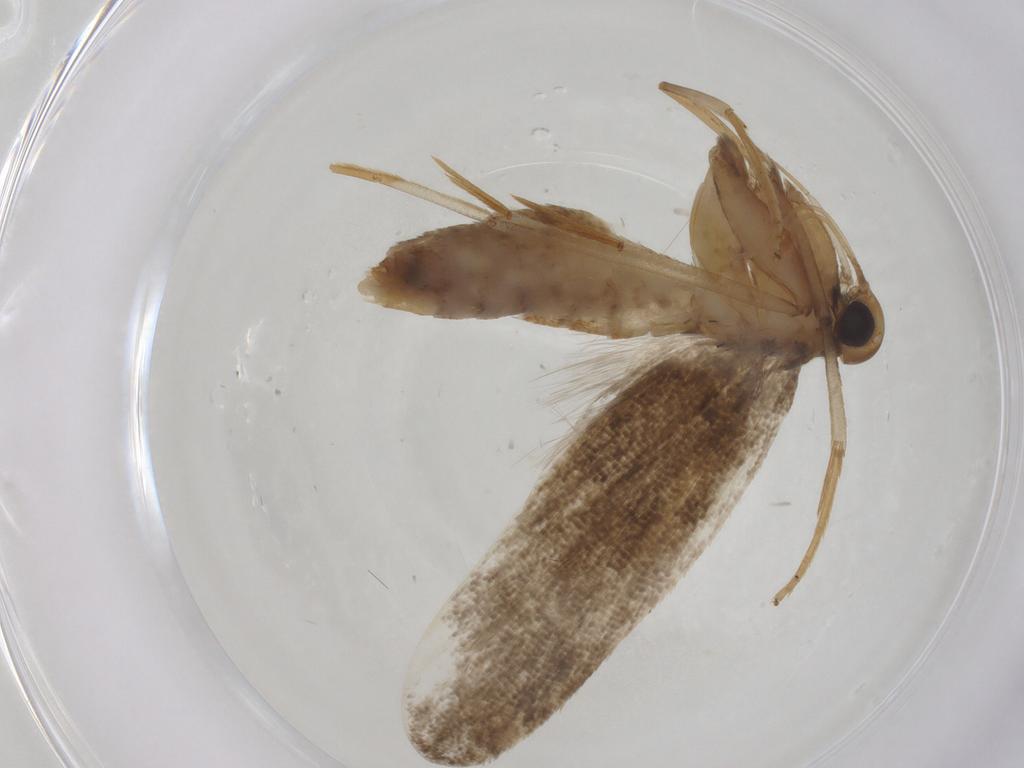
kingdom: Animalia
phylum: Arthropoda
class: Insecta
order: Lepidoptera
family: Lecithoceridae
